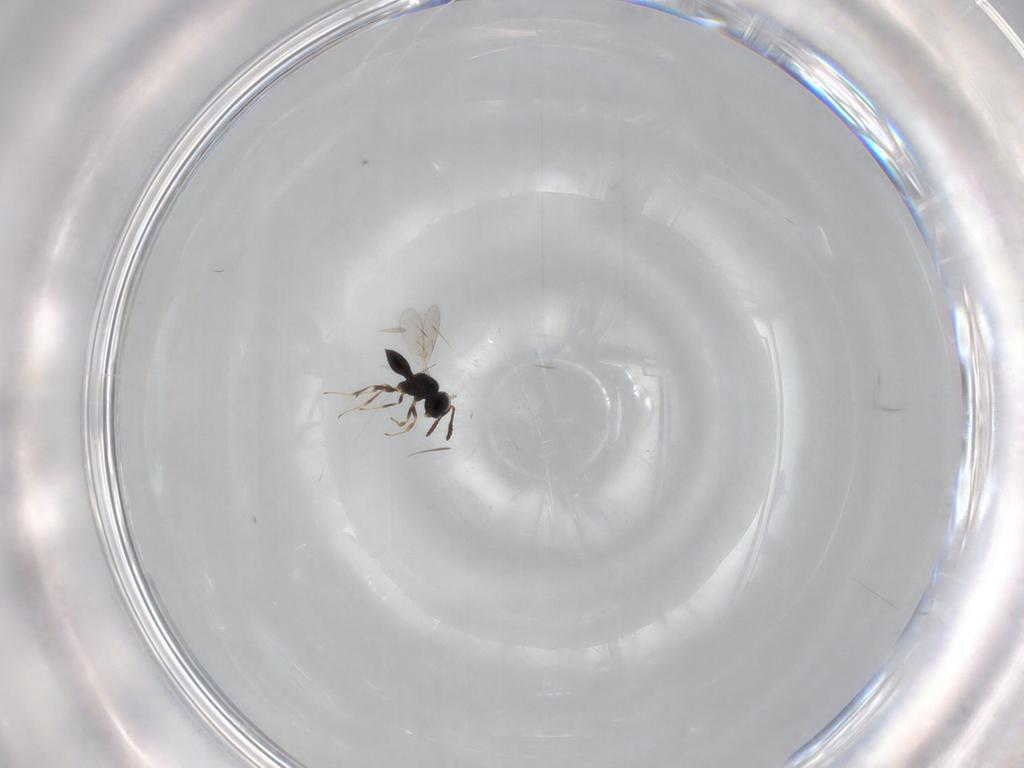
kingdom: Animalia
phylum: Arthropoda
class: Insecta
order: Hymenoptera
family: Scelionidae
